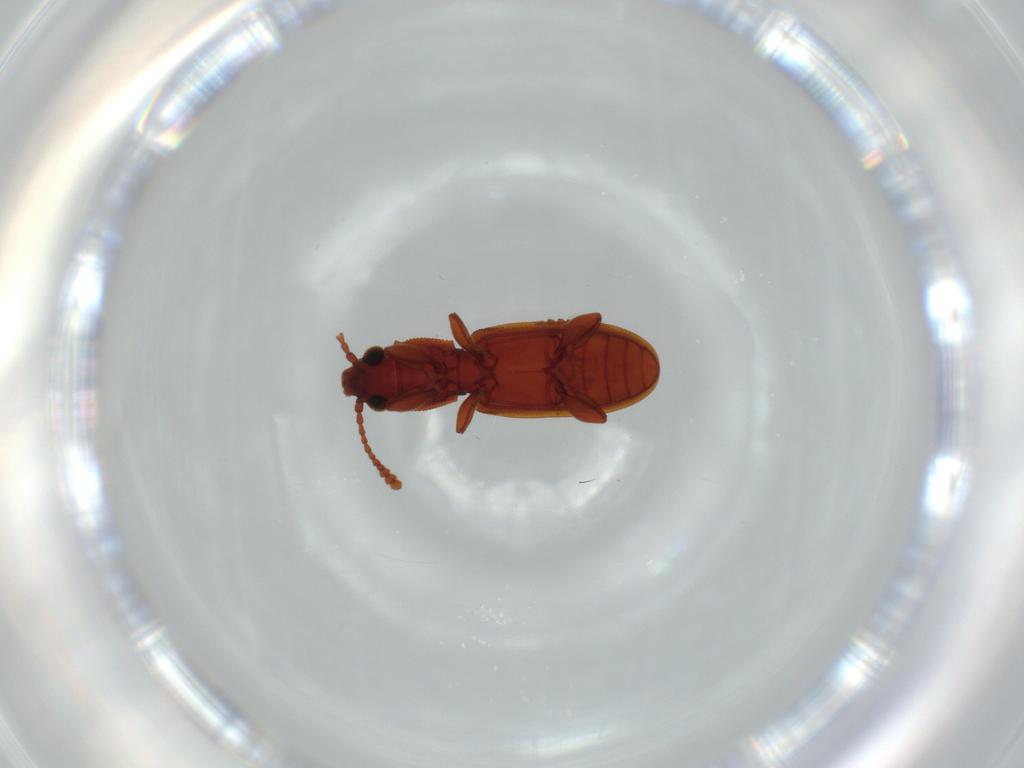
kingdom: Animalia
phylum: Arthropoda
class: Insecta
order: Coleoptera
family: Silvanidae
